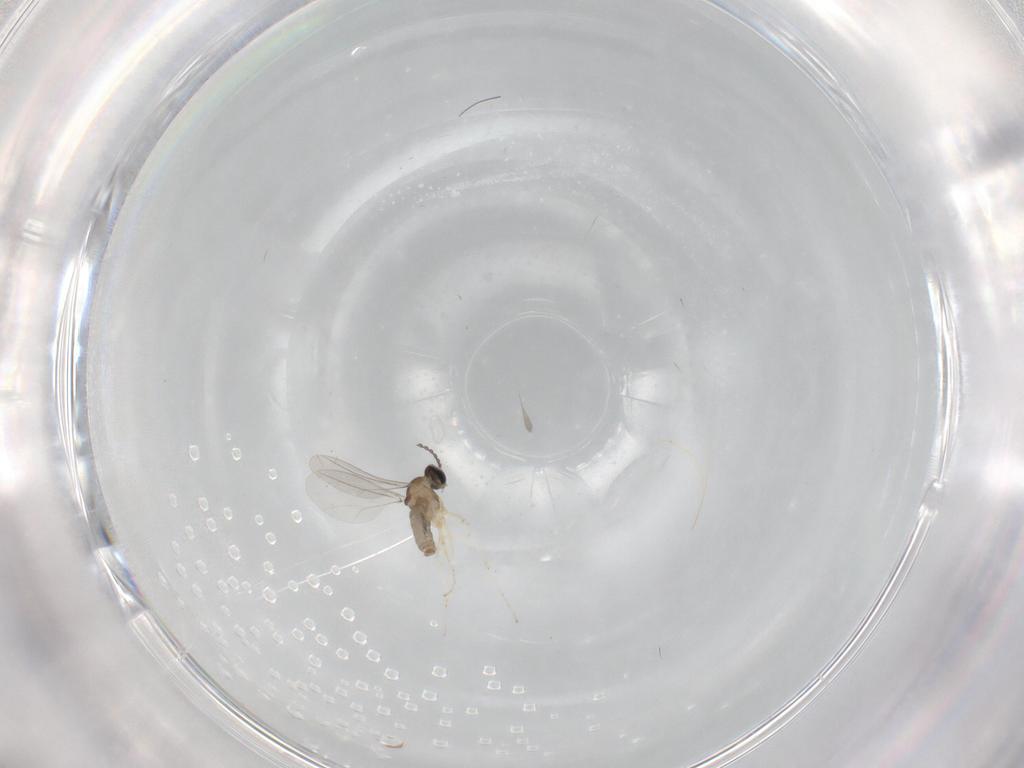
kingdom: Animalia
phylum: Arthropoda
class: Insecta
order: Diptera
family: Cecidomyiidae
